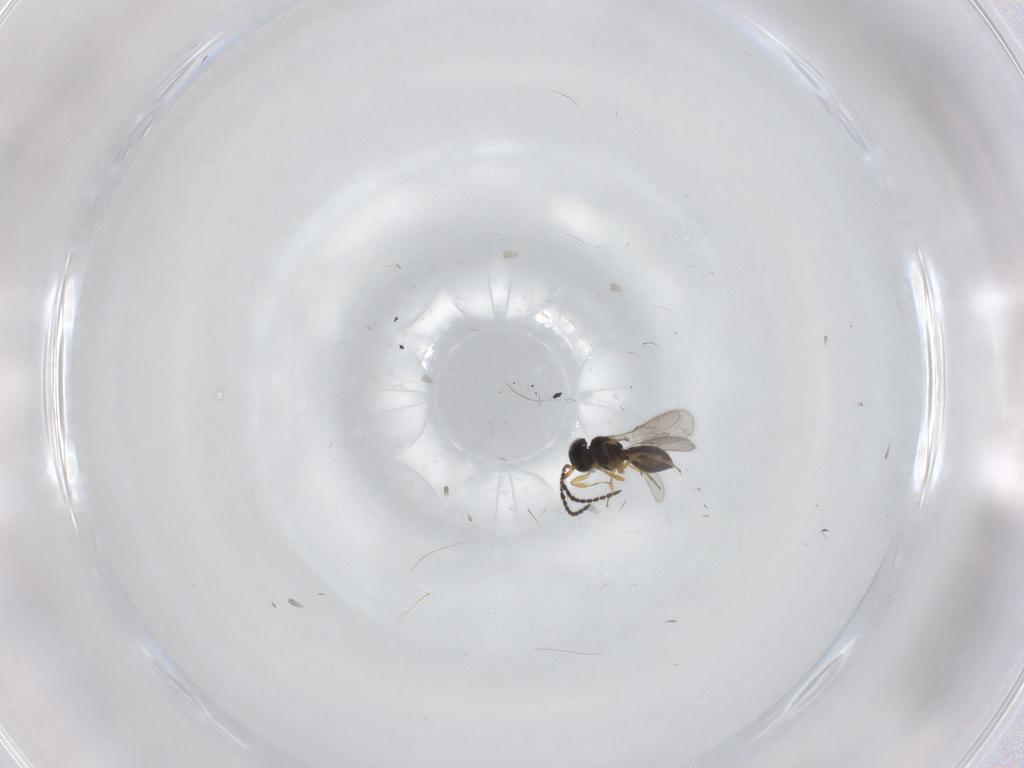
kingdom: Animalia
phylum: Arthropoda
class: Insecta
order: Hymenoptera
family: Scelionidae
